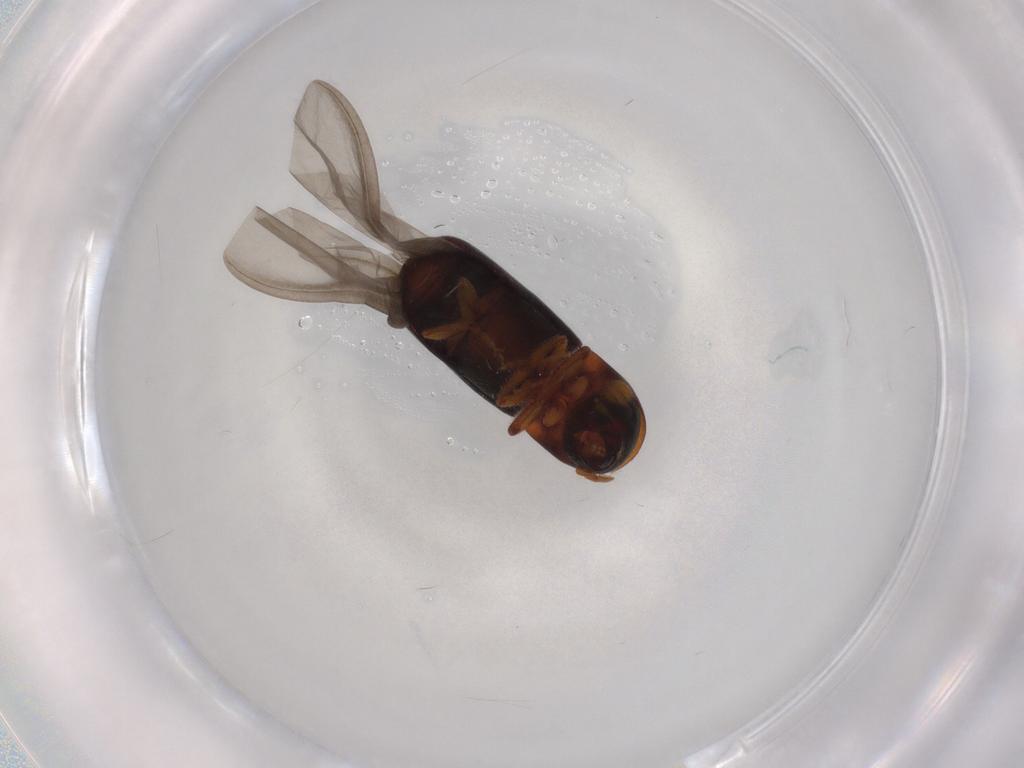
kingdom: Animalia
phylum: Arthropoda
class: Insecta
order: Coleoptera
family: Curculionidae
